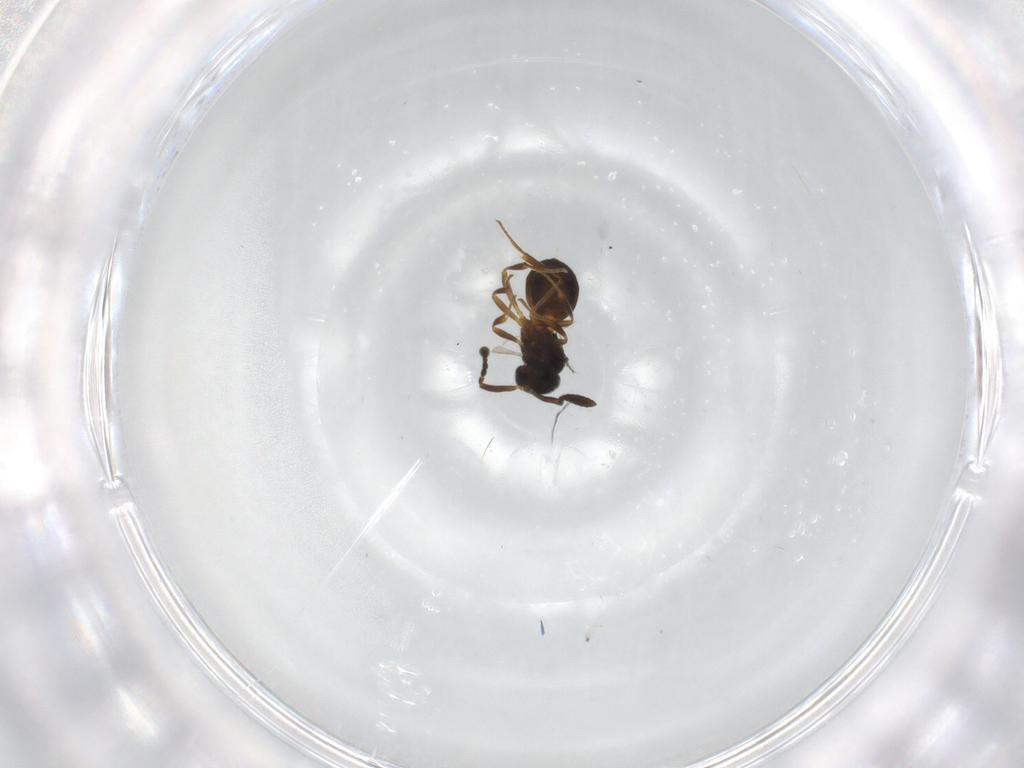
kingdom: Animalia
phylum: Arthropoda
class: Insecta
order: Hymenoptera
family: Scelionidae
